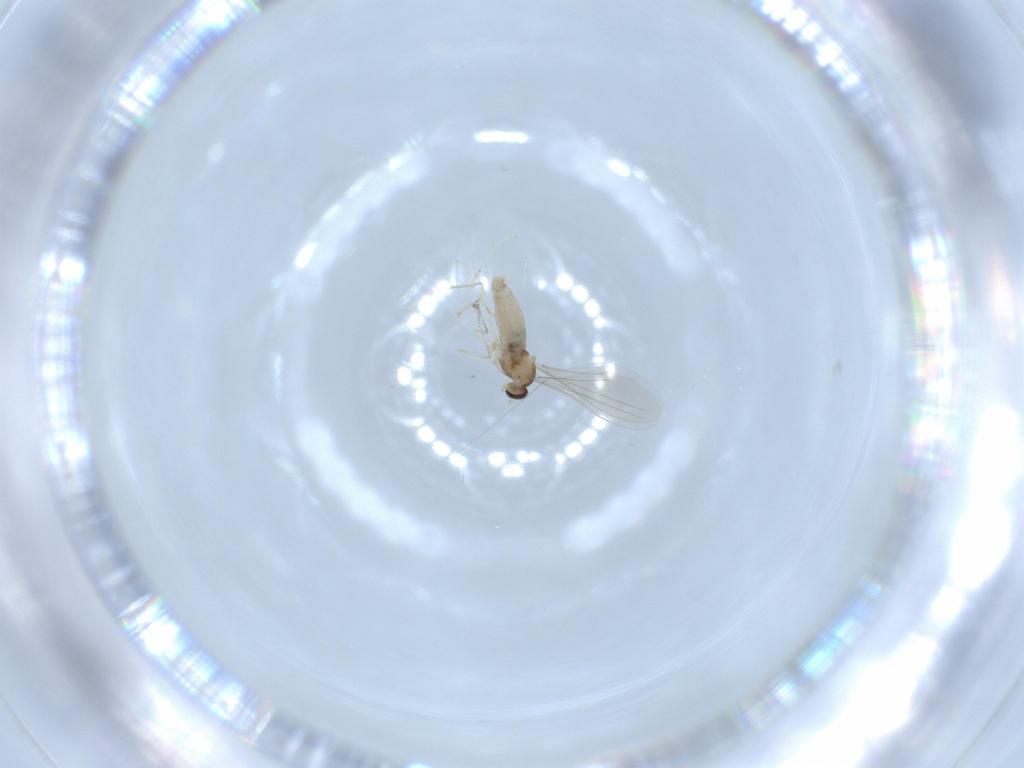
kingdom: Animalia
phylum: Arthropoda
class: Insecta
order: Diptera
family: Cecidomyiidae
